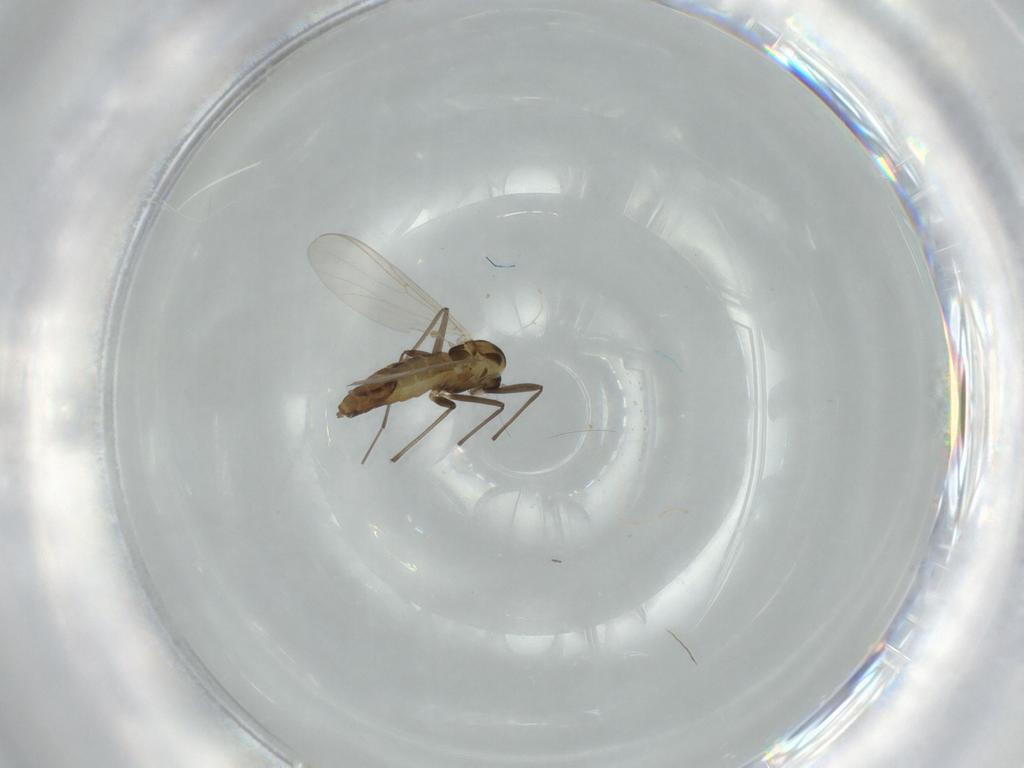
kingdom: Animalia
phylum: Arthropoda
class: Insecta
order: Diptera
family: Chironomidae
